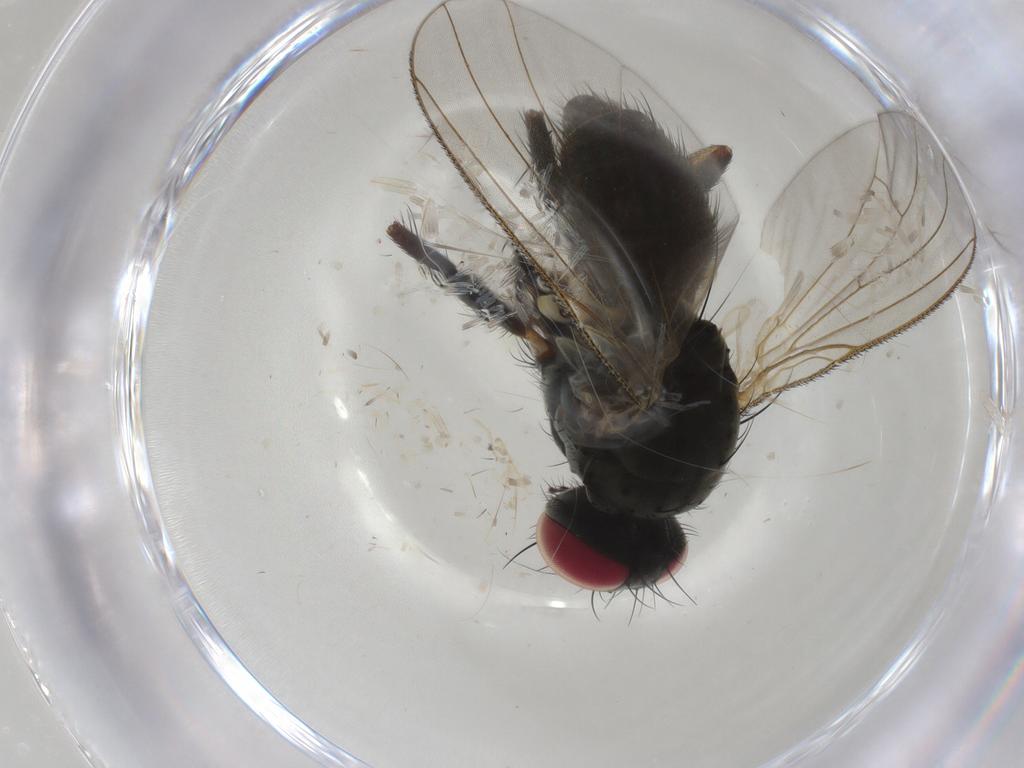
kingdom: Animalia
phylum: Arthropoda
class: Insecta
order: Diptera
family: Muscidae
